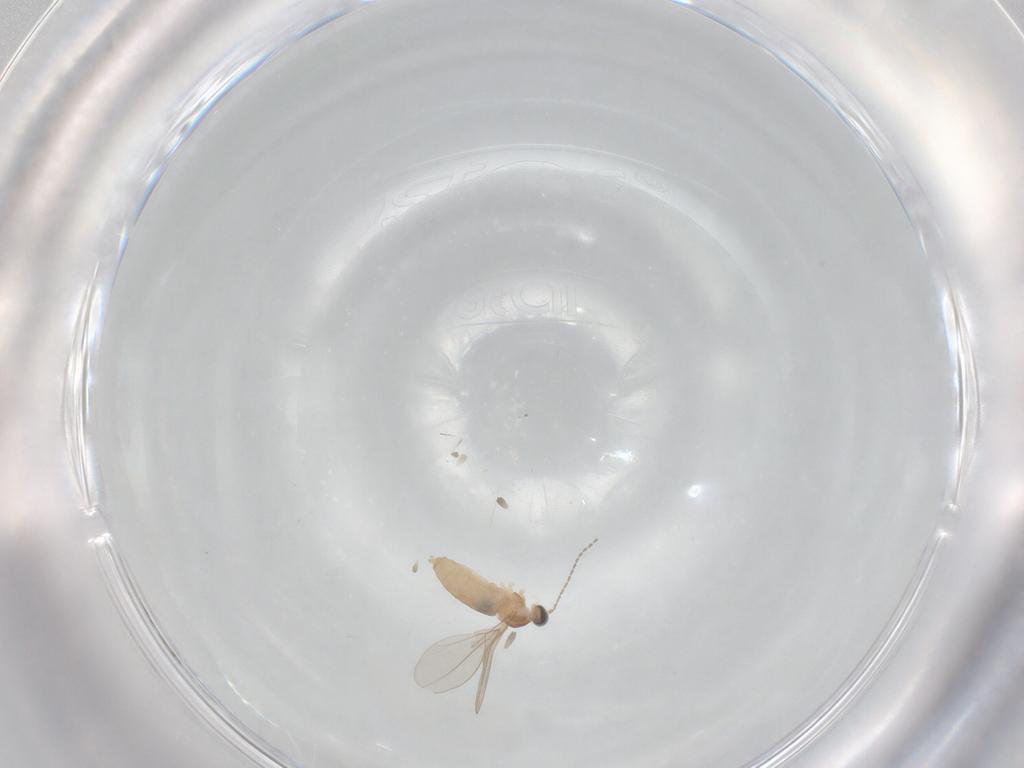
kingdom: Animalia
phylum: Arthropoda
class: Insecta
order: Diptera
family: Cecidomyiidae
